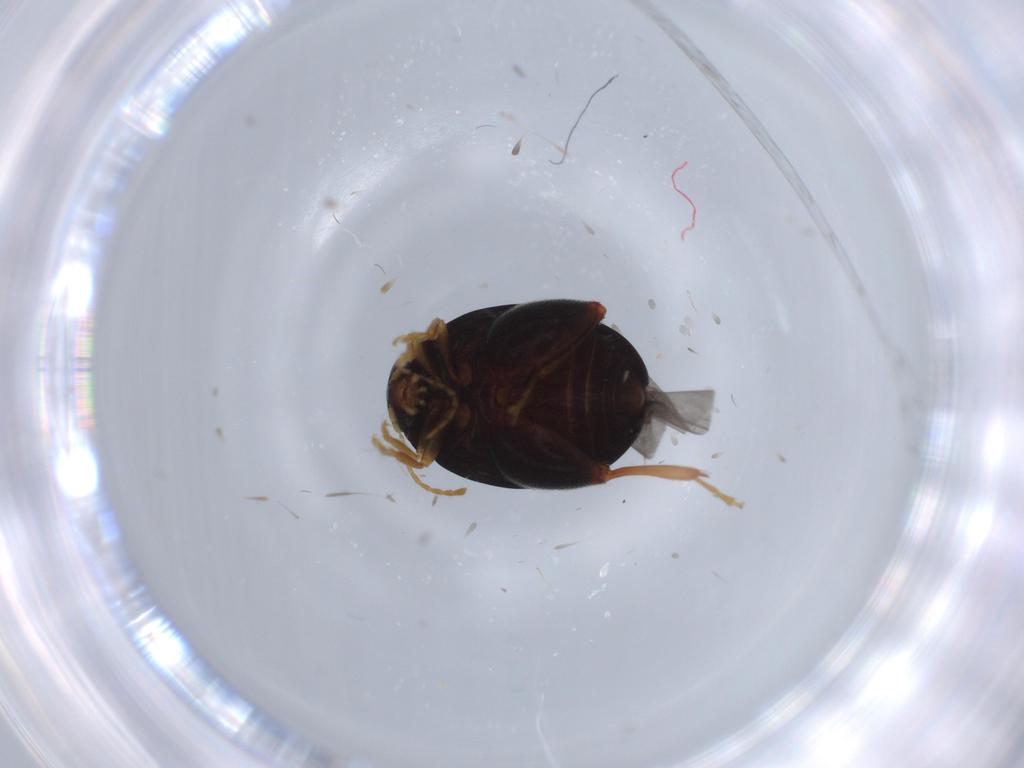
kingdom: Animalia
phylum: Arthropoda
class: Insecta
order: Coleoptera
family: Chrysomelidae
